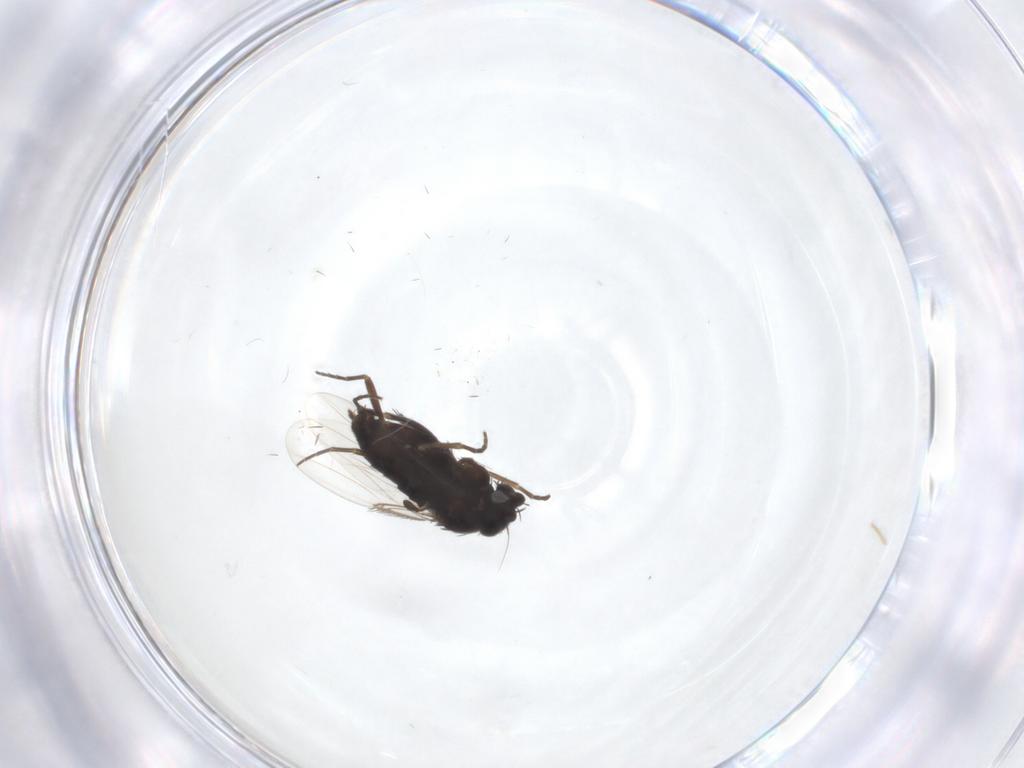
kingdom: Animalia
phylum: Arthropoda
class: Insecta
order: Diptera
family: Phoridae
